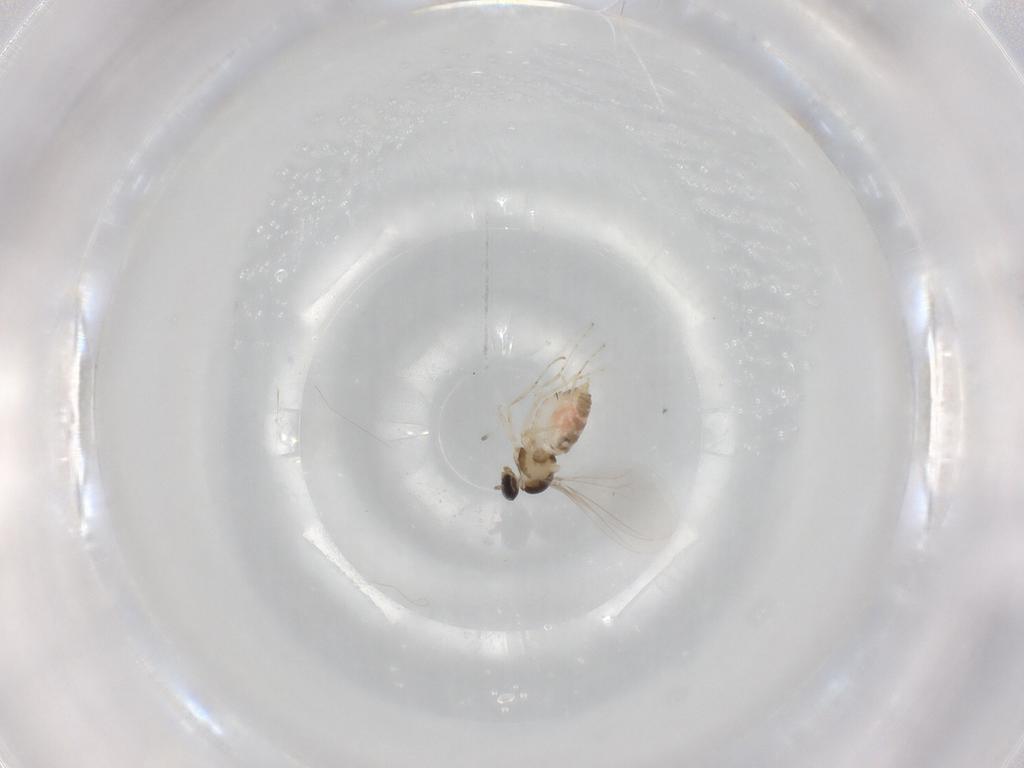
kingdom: Animalia
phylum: Arthropoda
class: Insecta
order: Diptera
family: Cecidomyiidae
